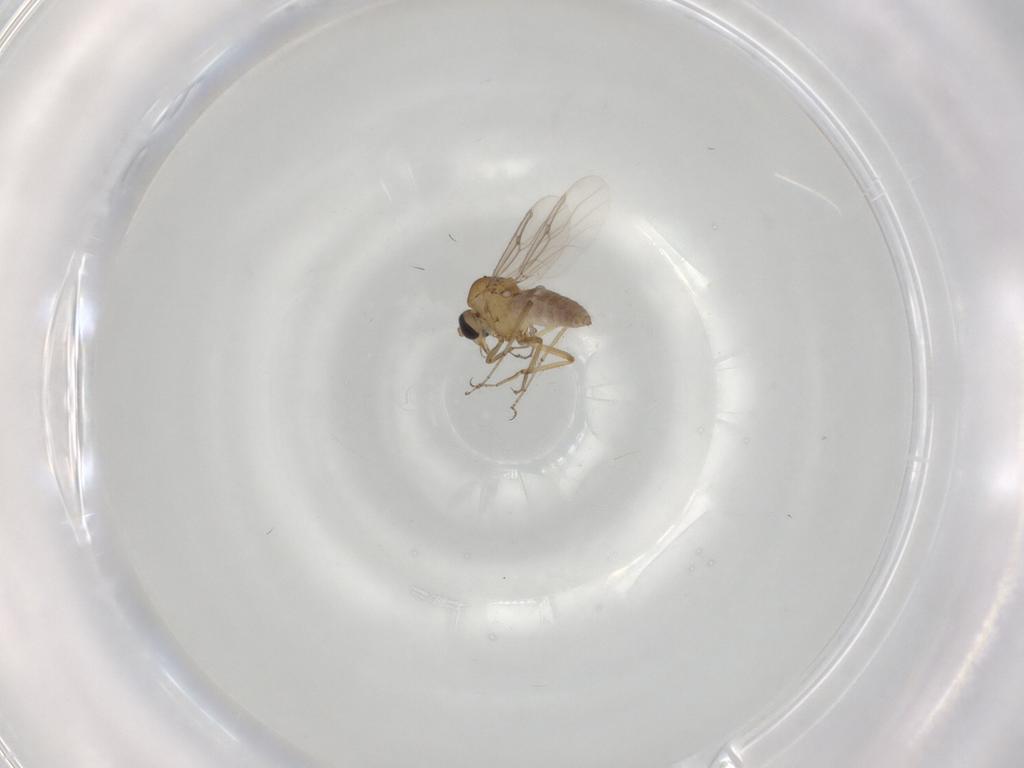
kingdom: Animalia
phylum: Arthropoda
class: Insecta
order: Diptera
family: Ceratopogonidae
